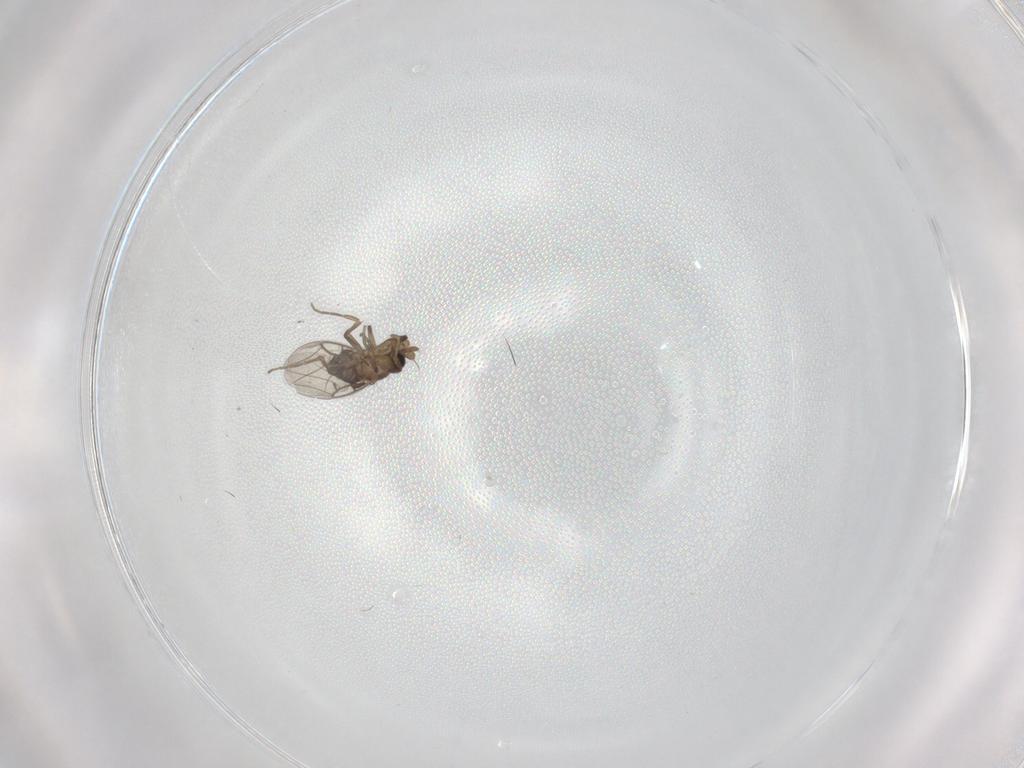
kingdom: Animalia
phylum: Arthropoda
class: Insecta
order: Diptera
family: Phoridae
